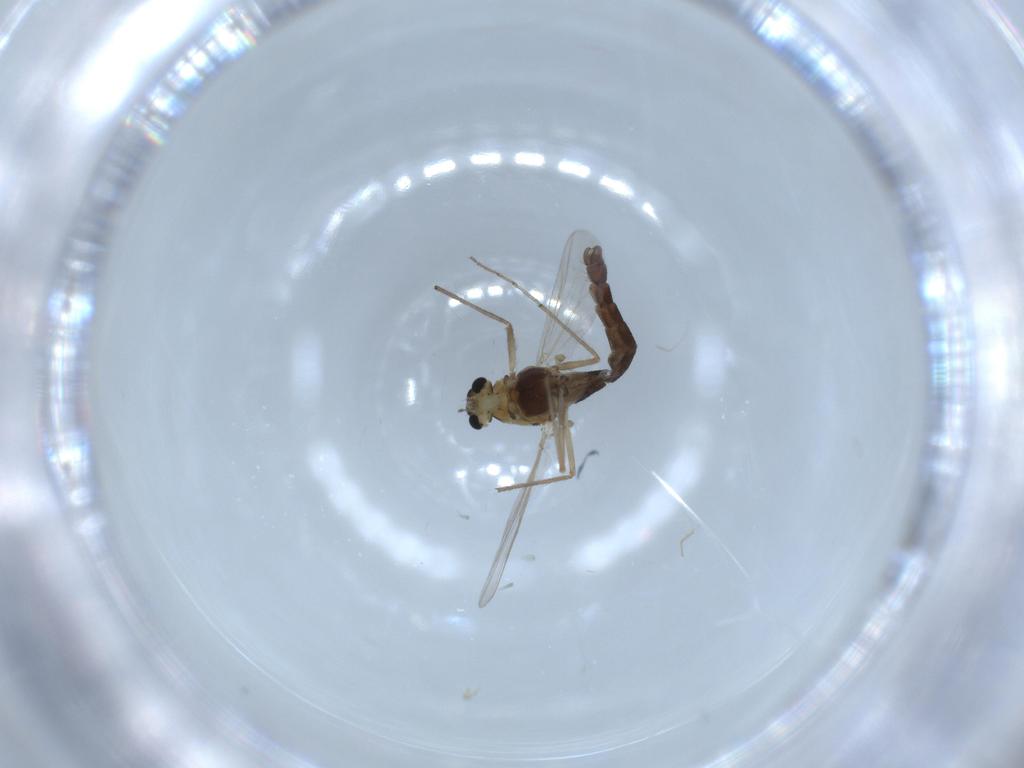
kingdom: Animalia
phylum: Arthropoda
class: Insecta
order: Diptera
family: Chironomidae
